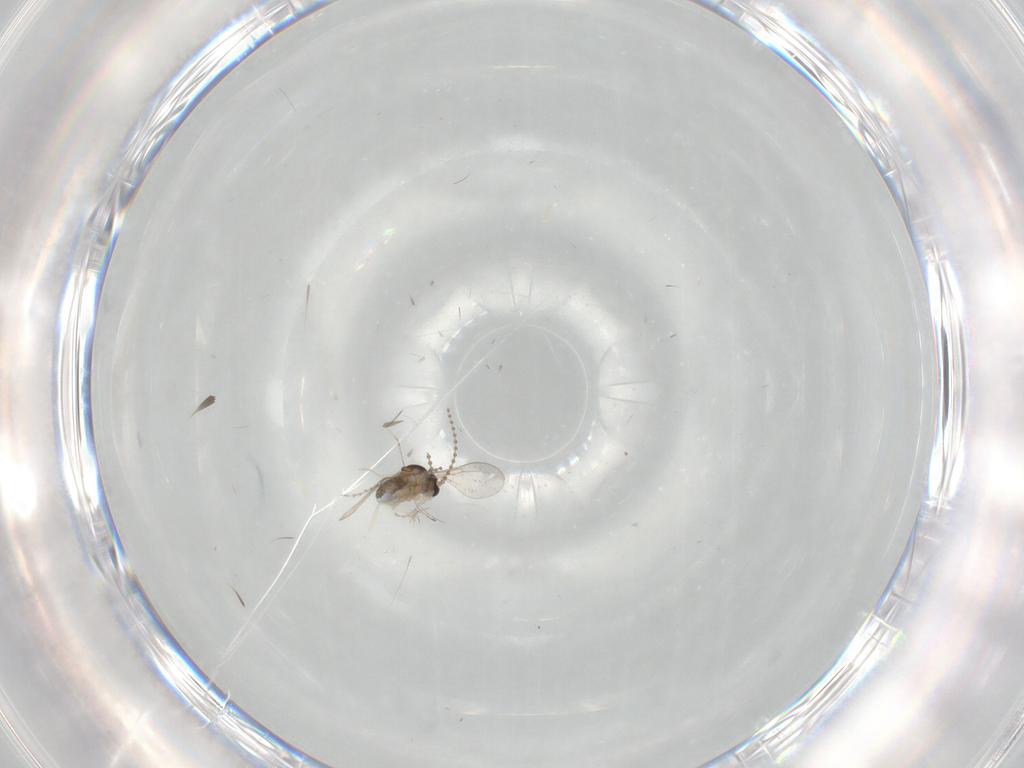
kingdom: Animalia
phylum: Arthropoda
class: Insecta
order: Diptera
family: Cecidomyiidae
